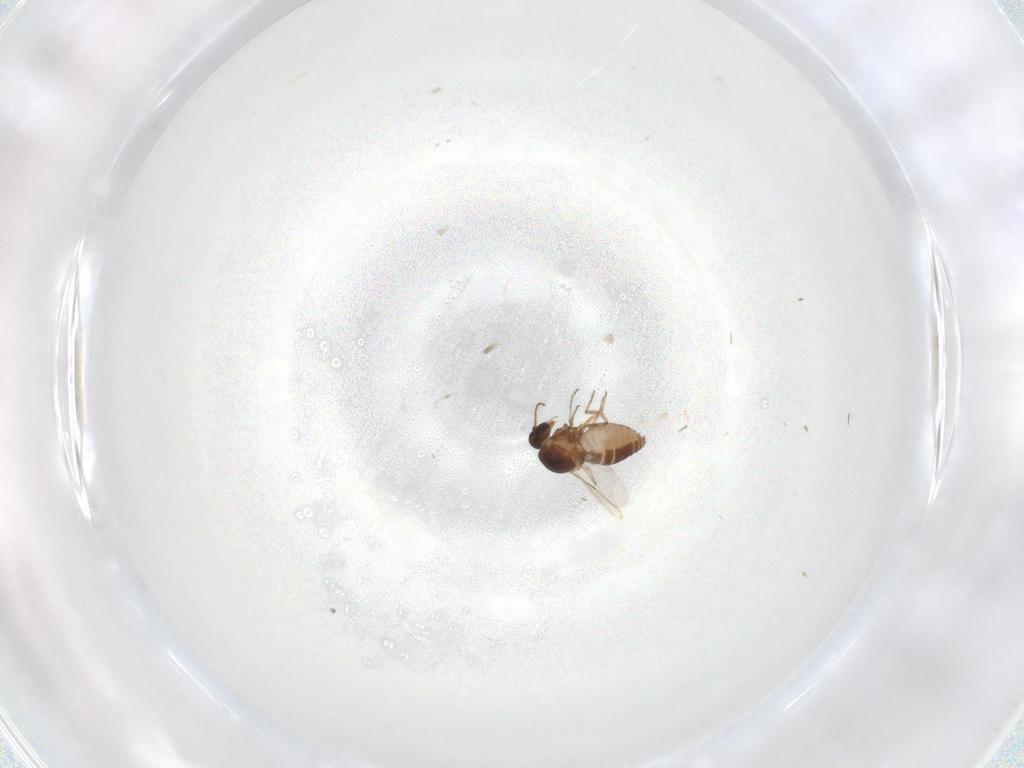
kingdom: Animalia
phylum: Arthropoda
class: Insecta
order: Diptera
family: Ceratopogonidae
